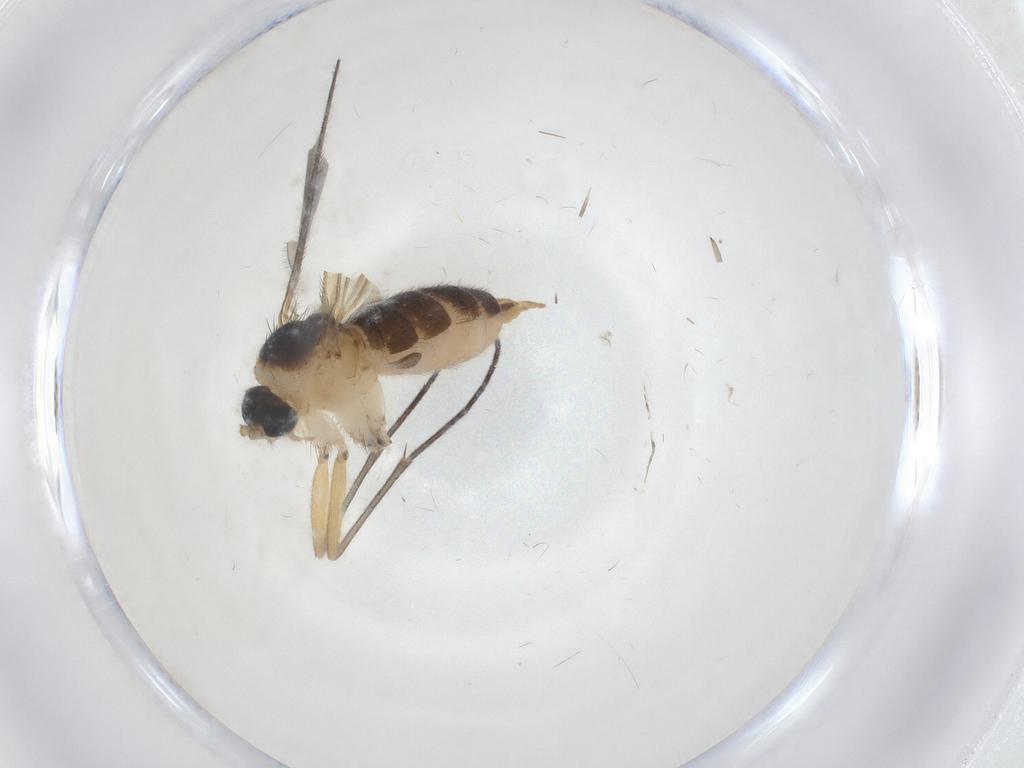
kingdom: Animalia
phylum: Arthropoda
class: Insecta
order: Diptera
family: Sciaridae
